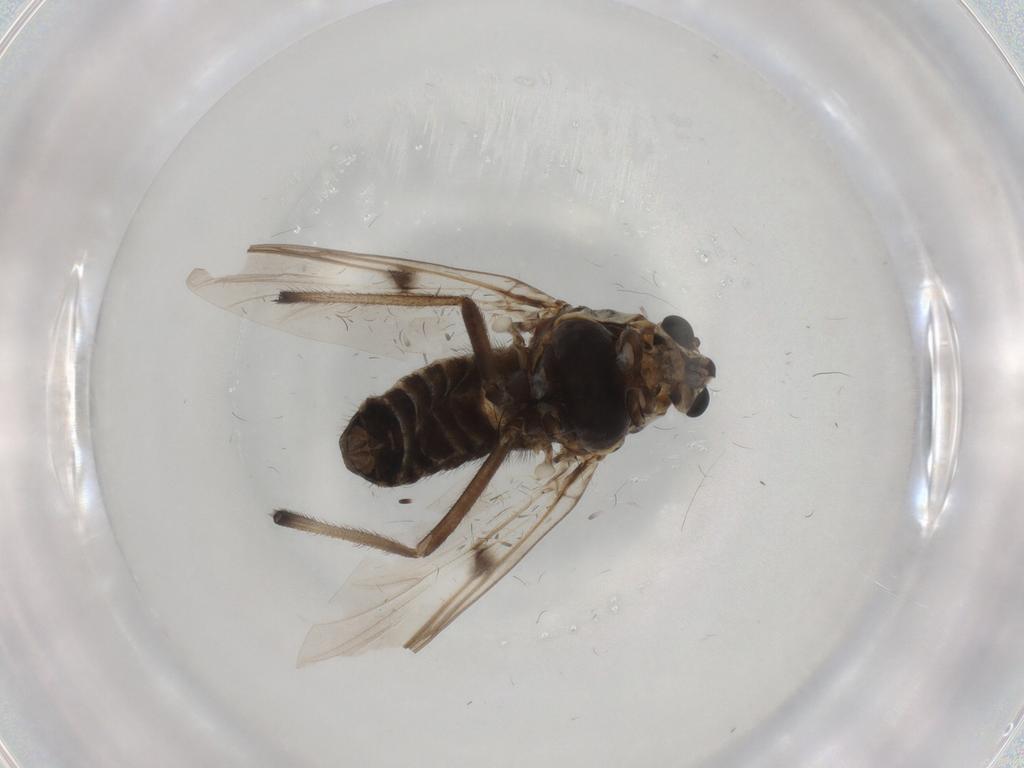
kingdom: Animalia
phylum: Arthropoda
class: Insecta
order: Diptera
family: Chironomidae
